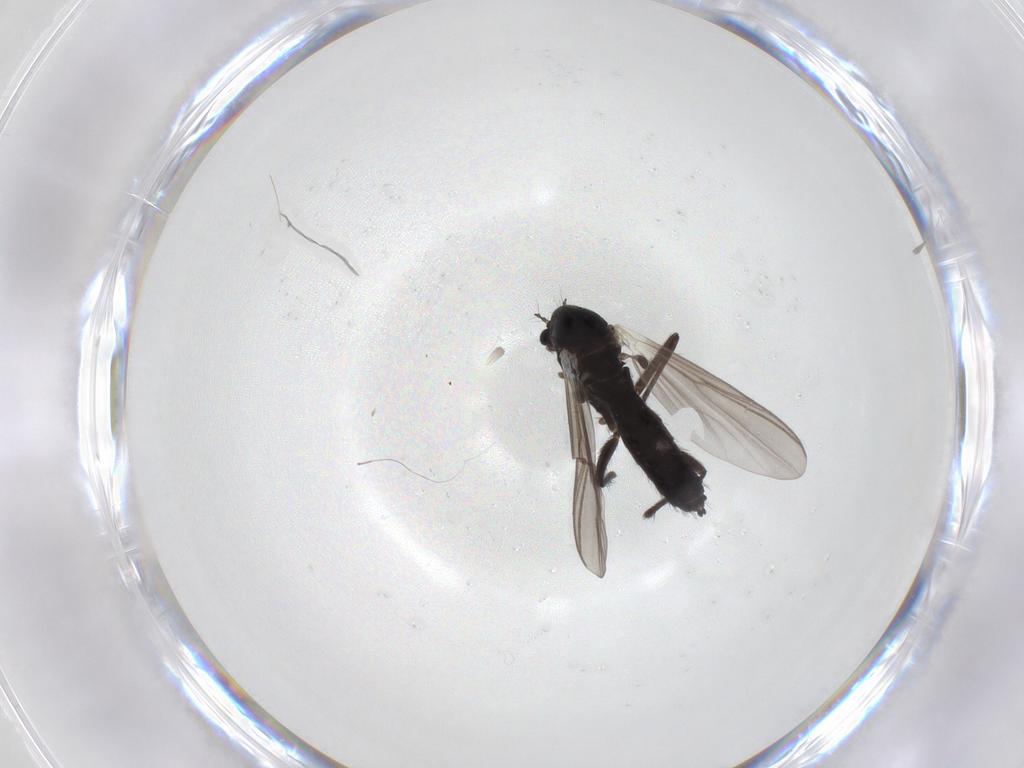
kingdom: Animalia
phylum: Arthropoda
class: Insecta
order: Diptera
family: Chironomidae
